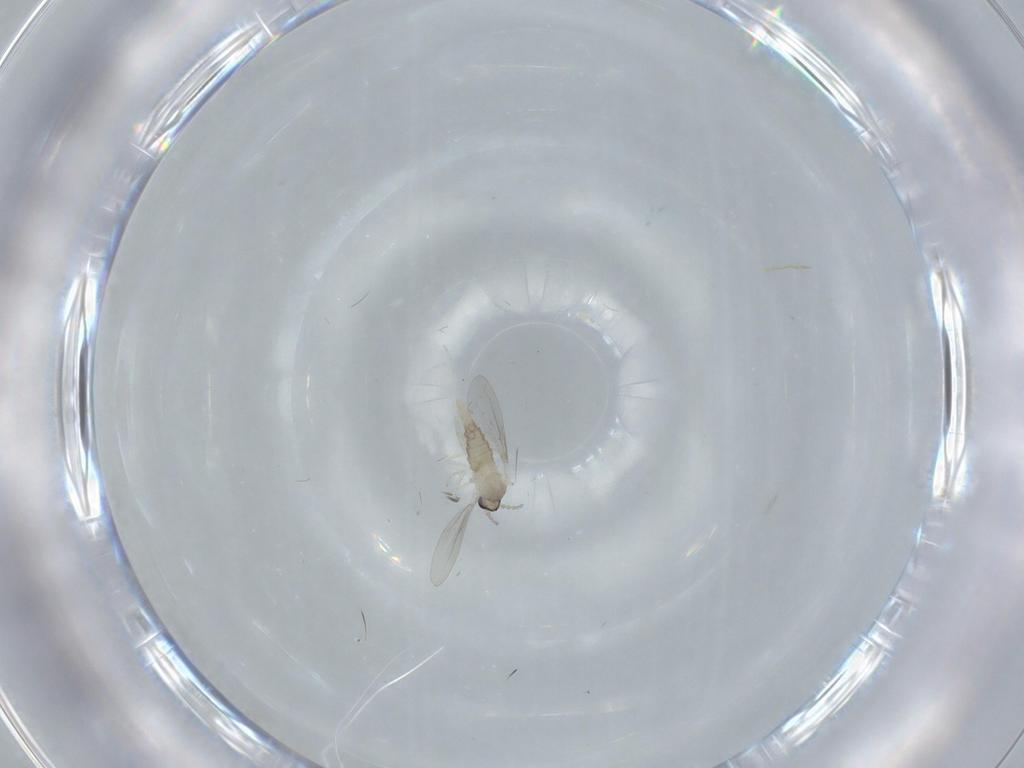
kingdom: Animalia
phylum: Arthropoda
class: Insecta
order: Diptera
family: Cecidomyiidae
